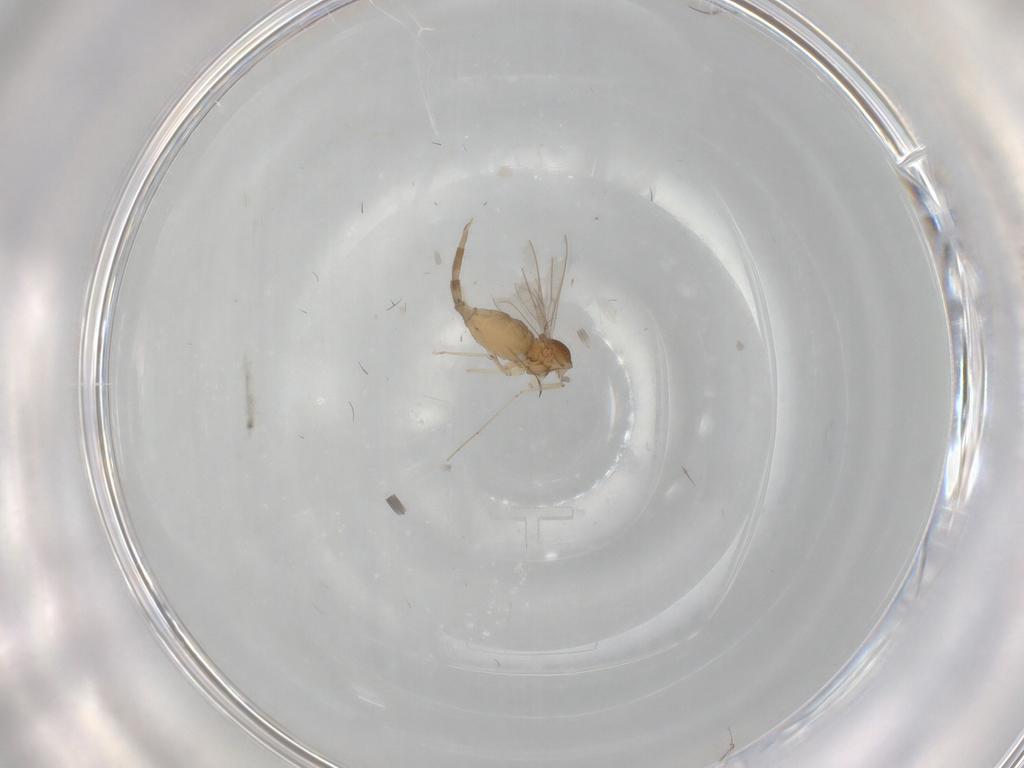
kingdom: Animalia
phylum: Arthropoda
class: Insecta
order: Diptera
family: Cecidomyiidae
